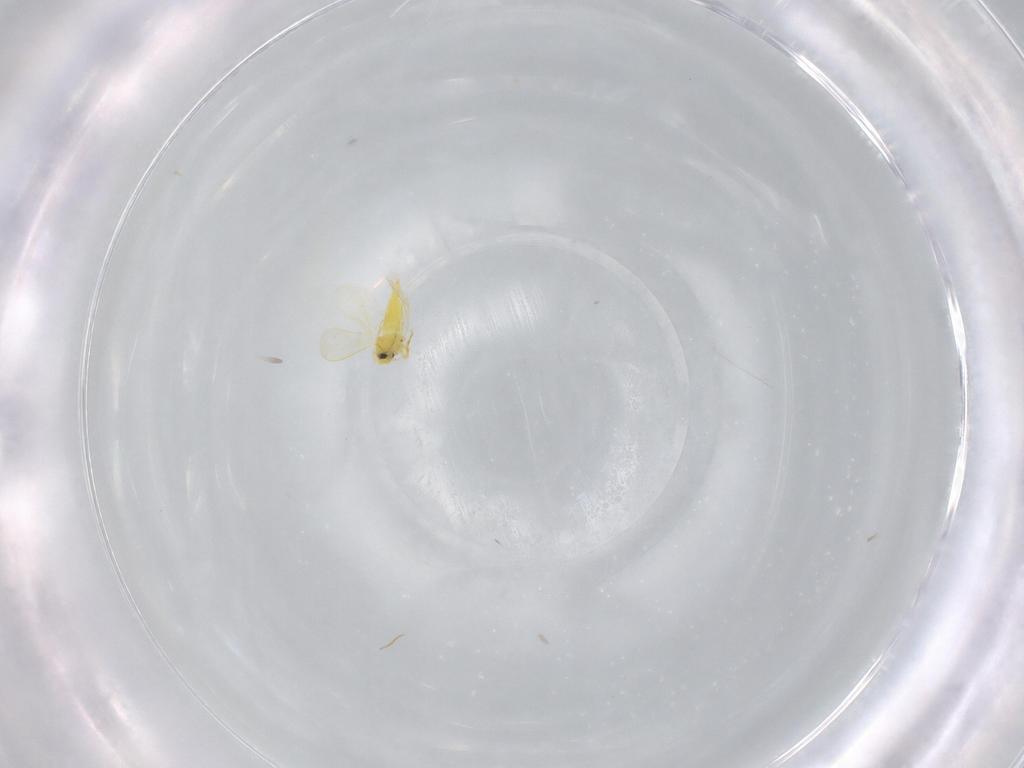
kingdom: Animalia
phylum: Arthropoda
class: Insecta
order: Hemiptera
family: Aleyrodidae
